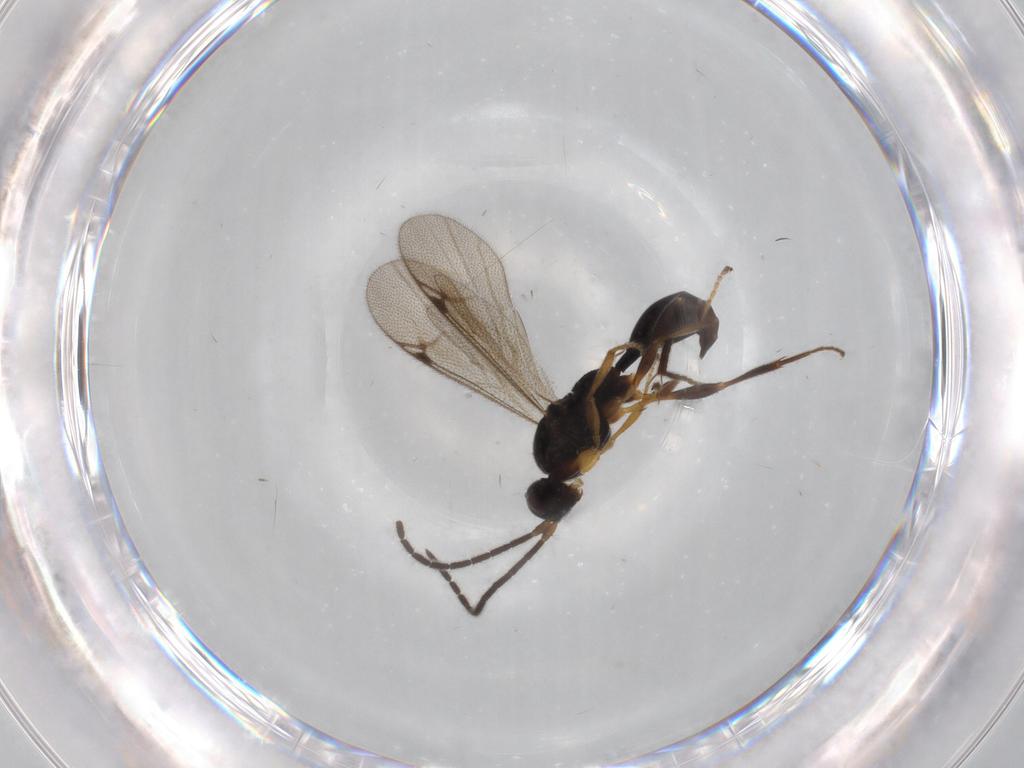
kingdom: Animalia
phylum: Arthropoda
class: Insecta
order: Hymenoptera
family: Proctotrupidae
